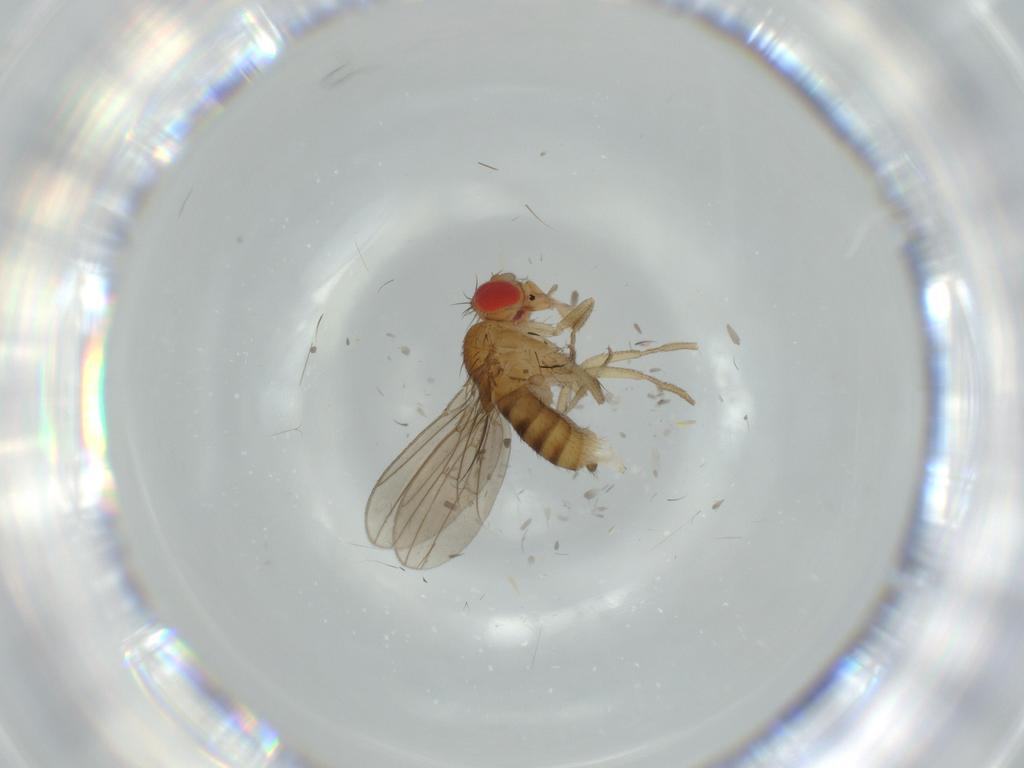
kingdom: Animalia
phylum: Arthropoda
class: Insecta
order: Diptera
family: Drosophilidae
